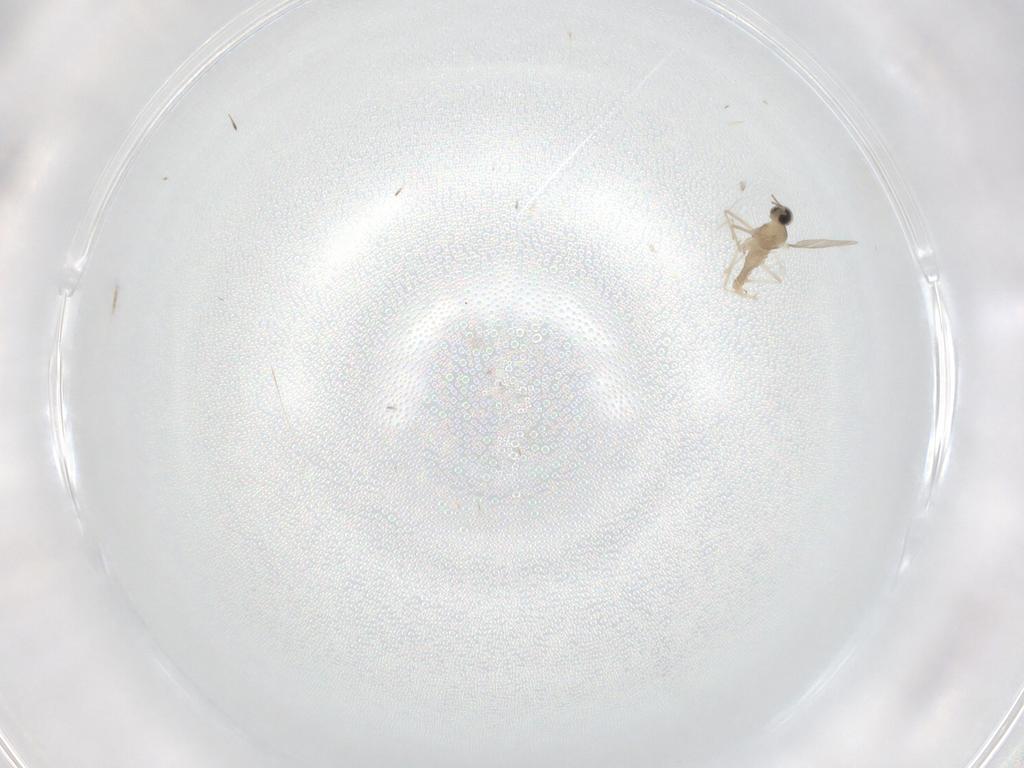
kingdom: Animalia
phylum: Arthropoda
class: Insecta
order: Diptera
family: Cecidomyiidae
